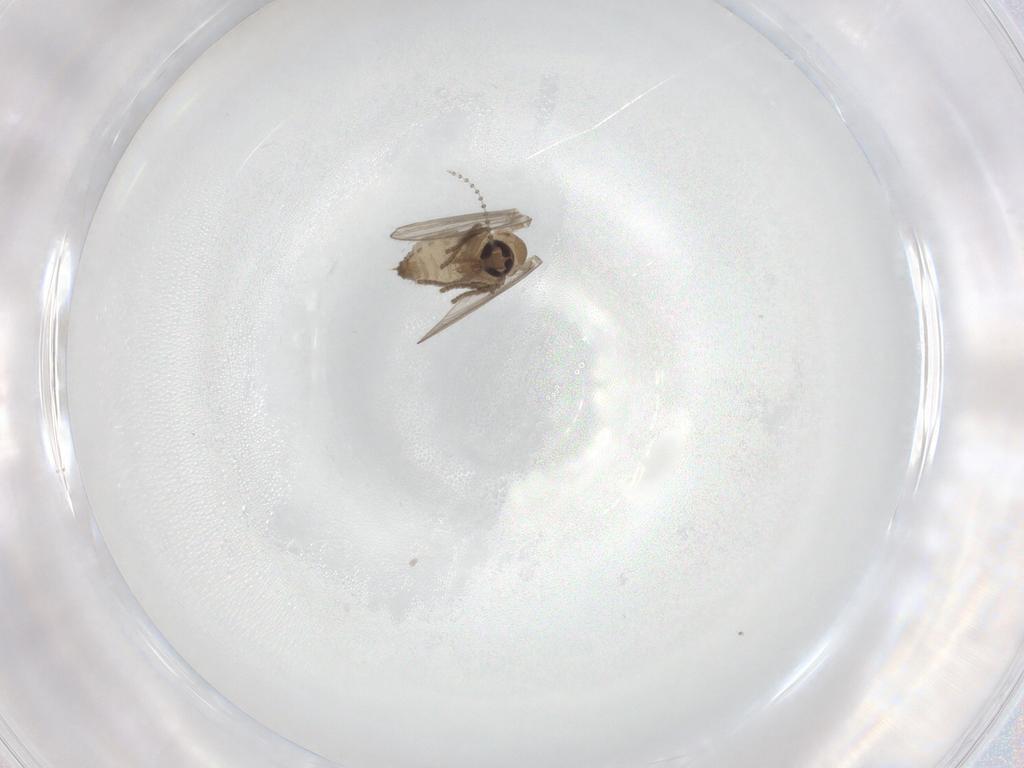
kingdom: Animalia
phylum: Arthropoda
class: Insecta
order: Diptera
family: Psychodidae
